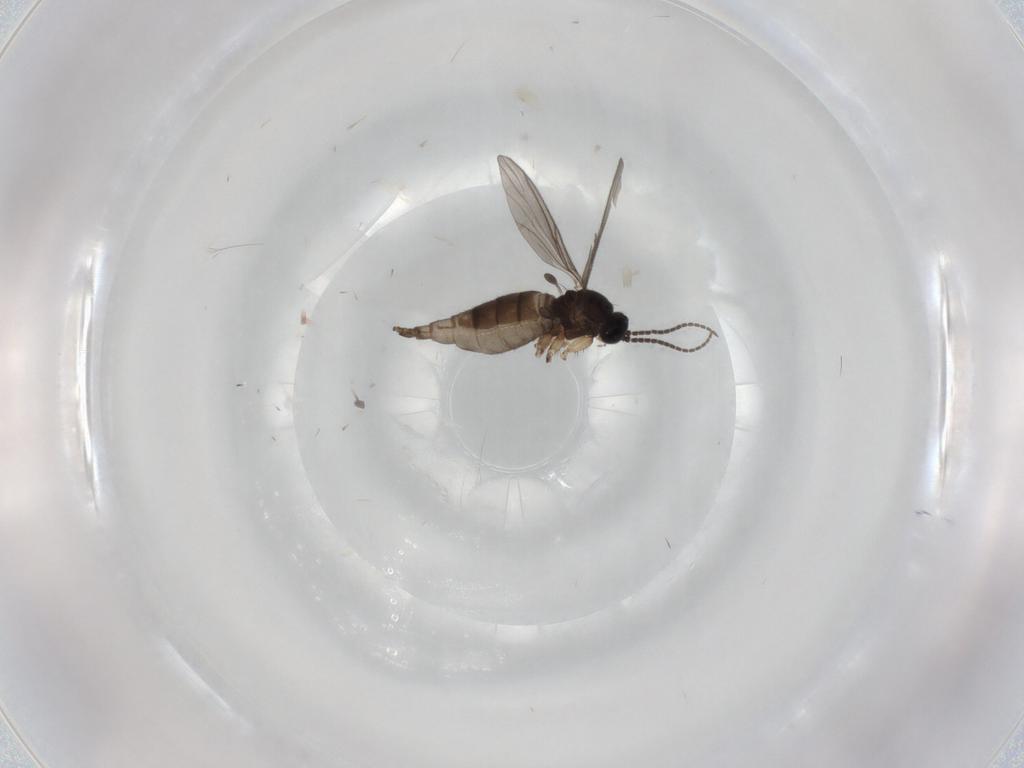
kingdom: Animalia
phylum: Arthropoda
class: Insecta
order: Diptera
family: Sciaridae
